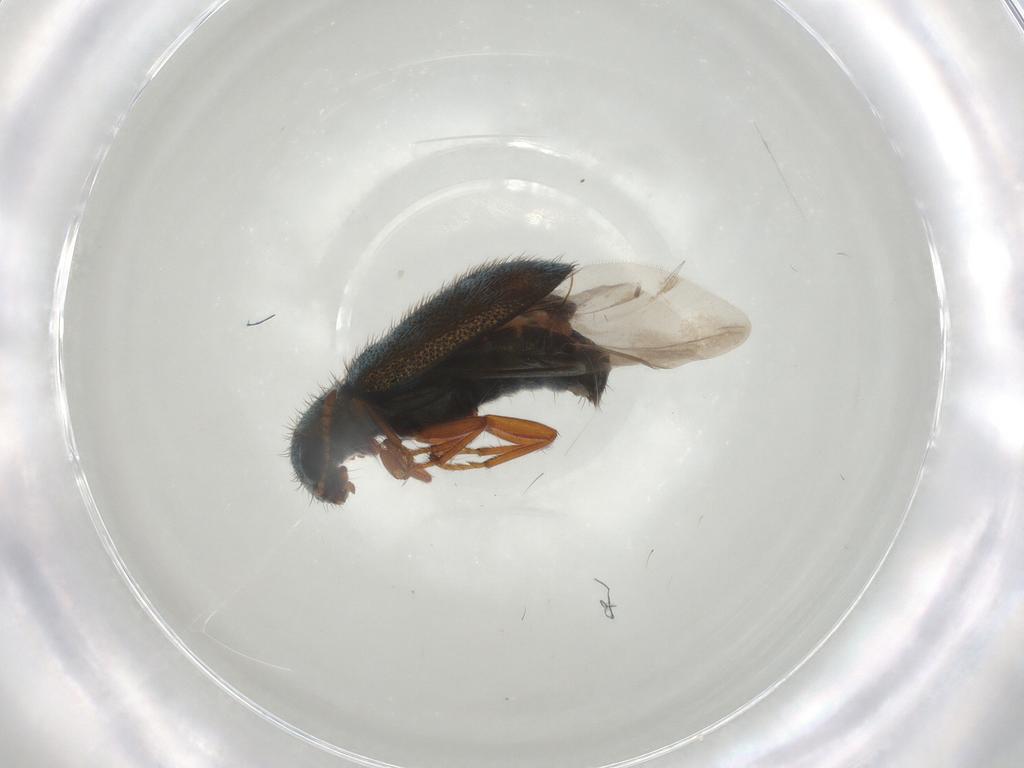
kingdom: Animalia
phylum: Arthropoda
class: Insecta
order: Coleoptera
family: Melyridae
